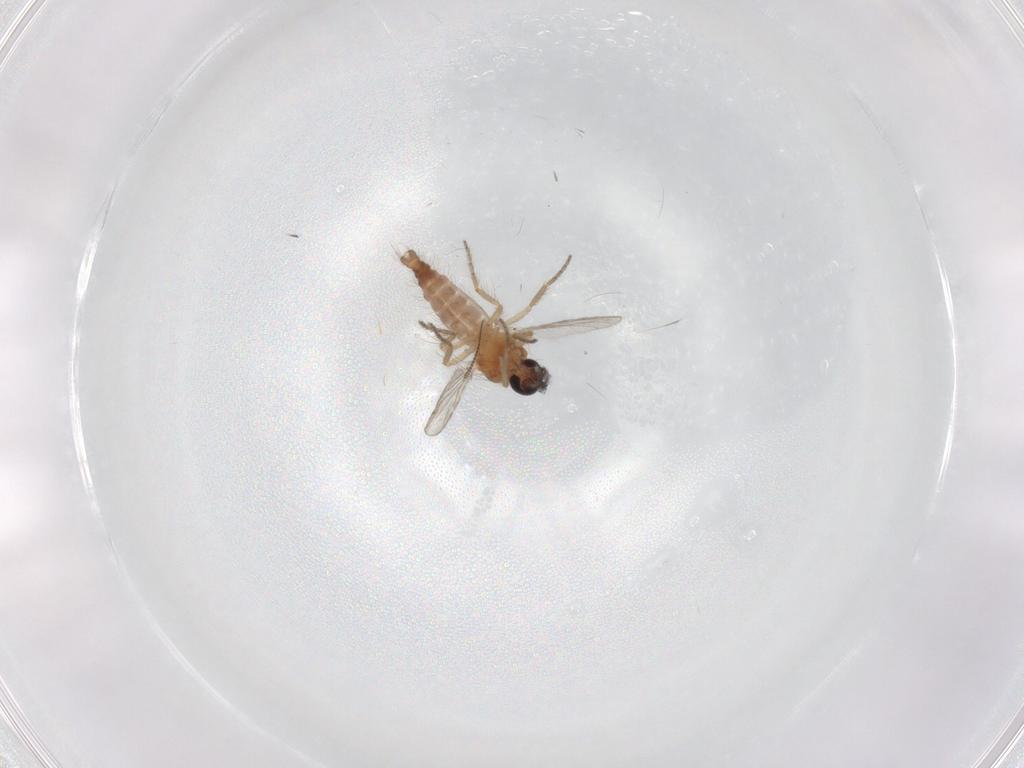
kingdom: Animalia
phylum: Arthropoda
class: Insecta
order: Diptera
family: Ceratopogonidae
